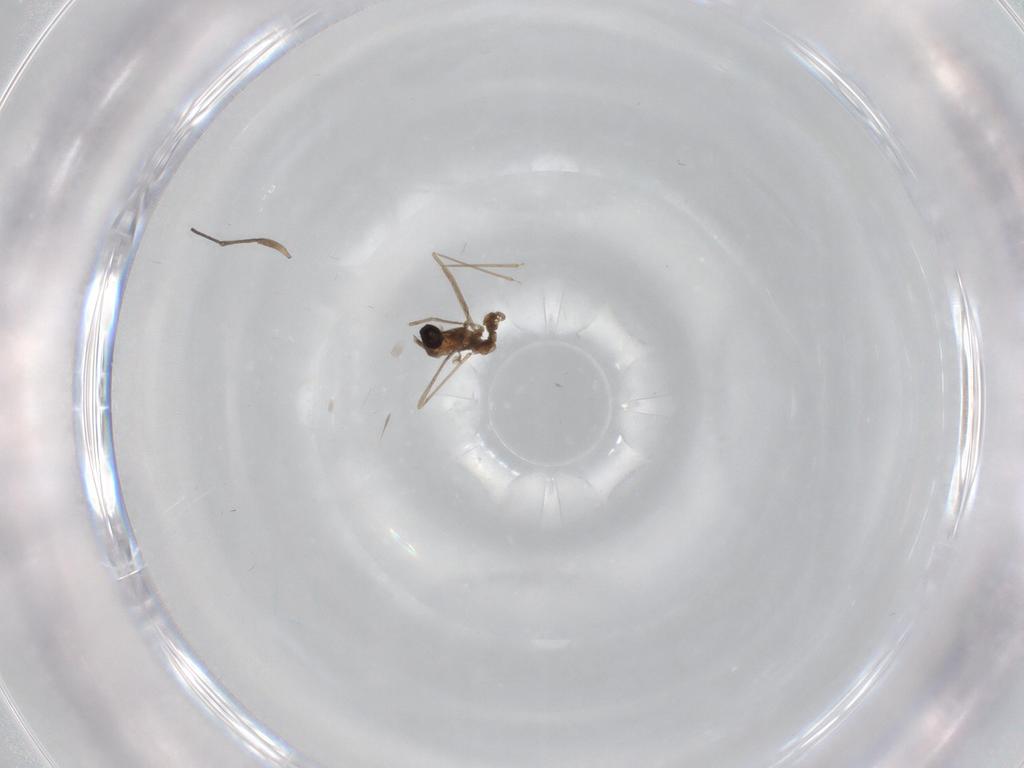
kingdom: Animalia
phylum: Arthropoda
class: Insecta
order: Diptera
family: Cecidomyiidae
